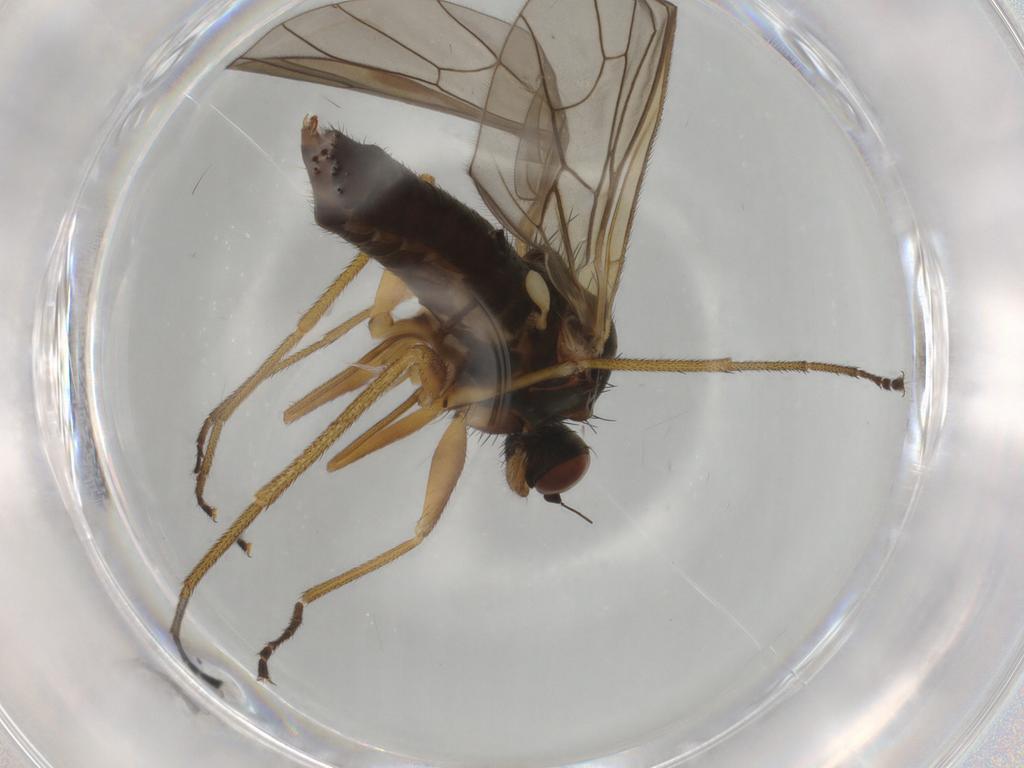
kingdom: Animalia
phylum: Arthropoda
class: Insecta
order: Diptera
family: Brachystomatidae
